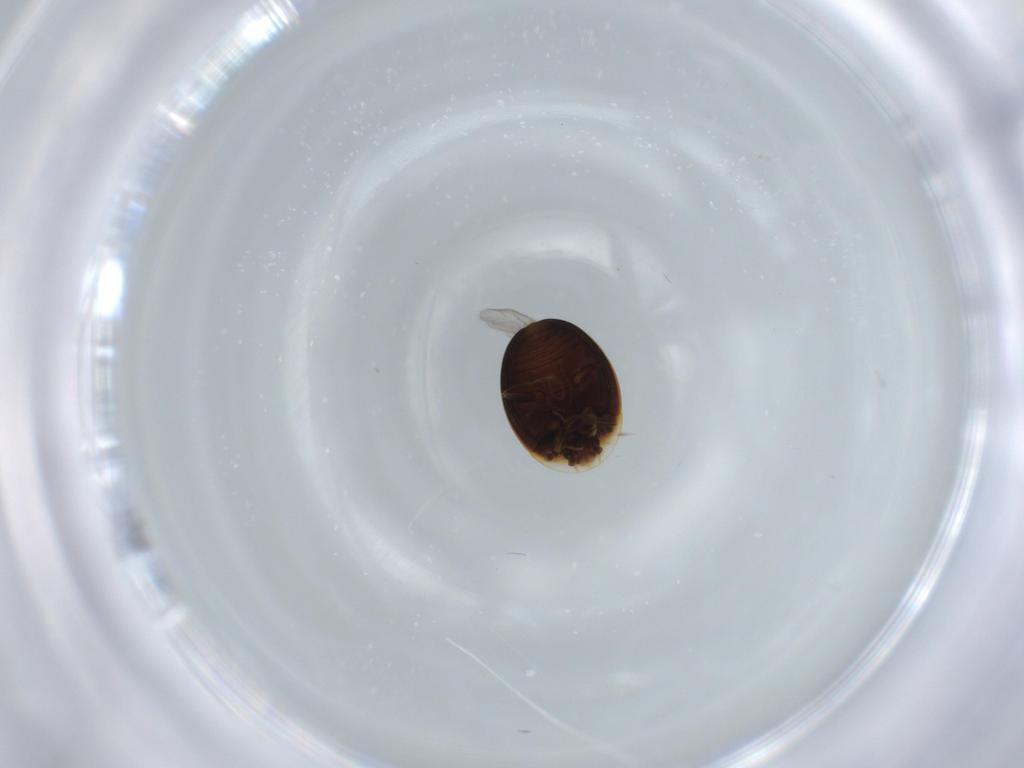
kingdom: Animalia
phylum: Arthropoda
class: Insecta
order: Coleoptera
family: Corylophidae
